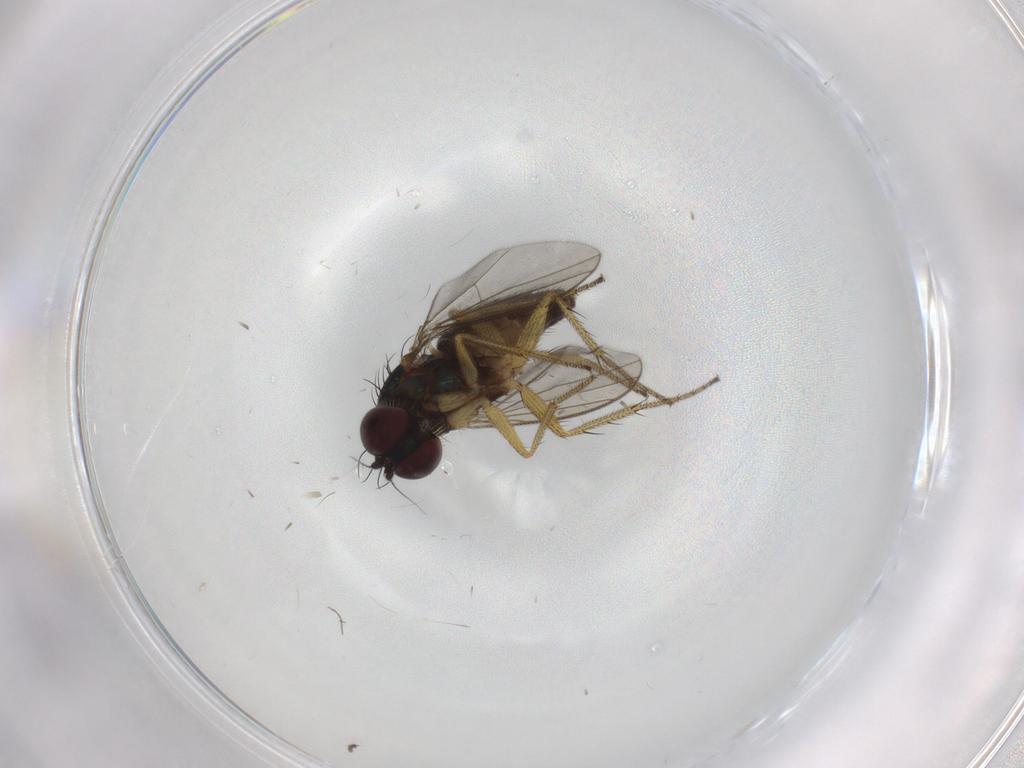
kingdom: Animalia
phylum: Arthropoda
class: Insecta
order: Diptera
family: Chironomidae
